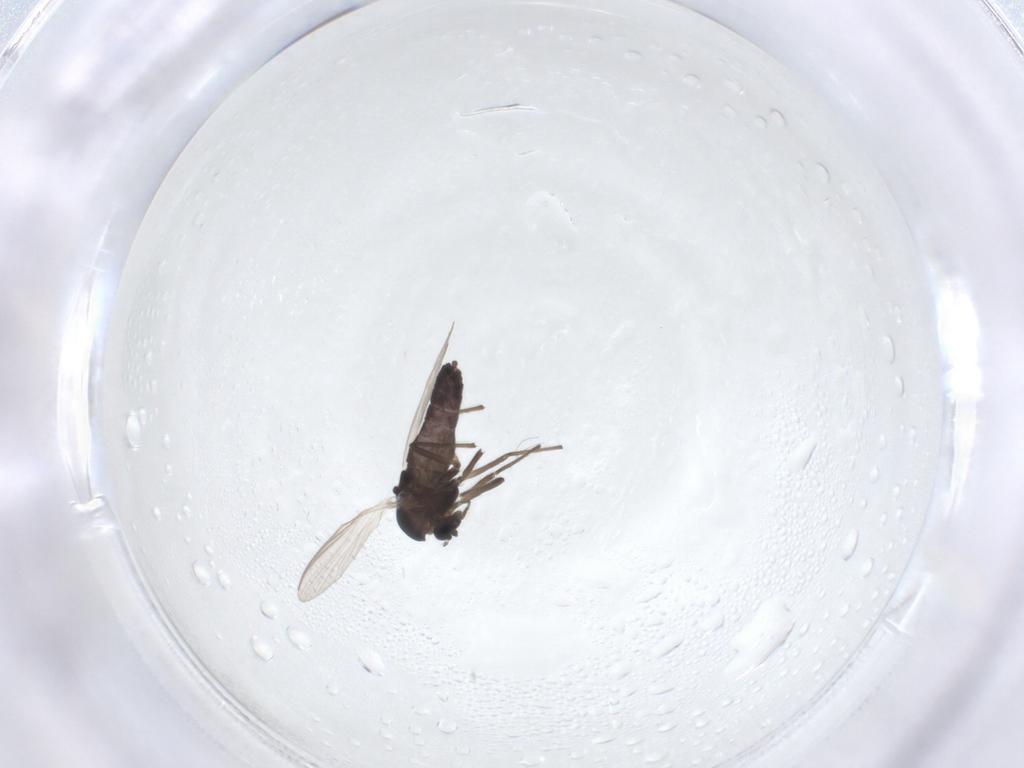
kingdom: Animalia
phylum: Arthropoda
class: Insecta
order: Diptera
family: Chironomidae
